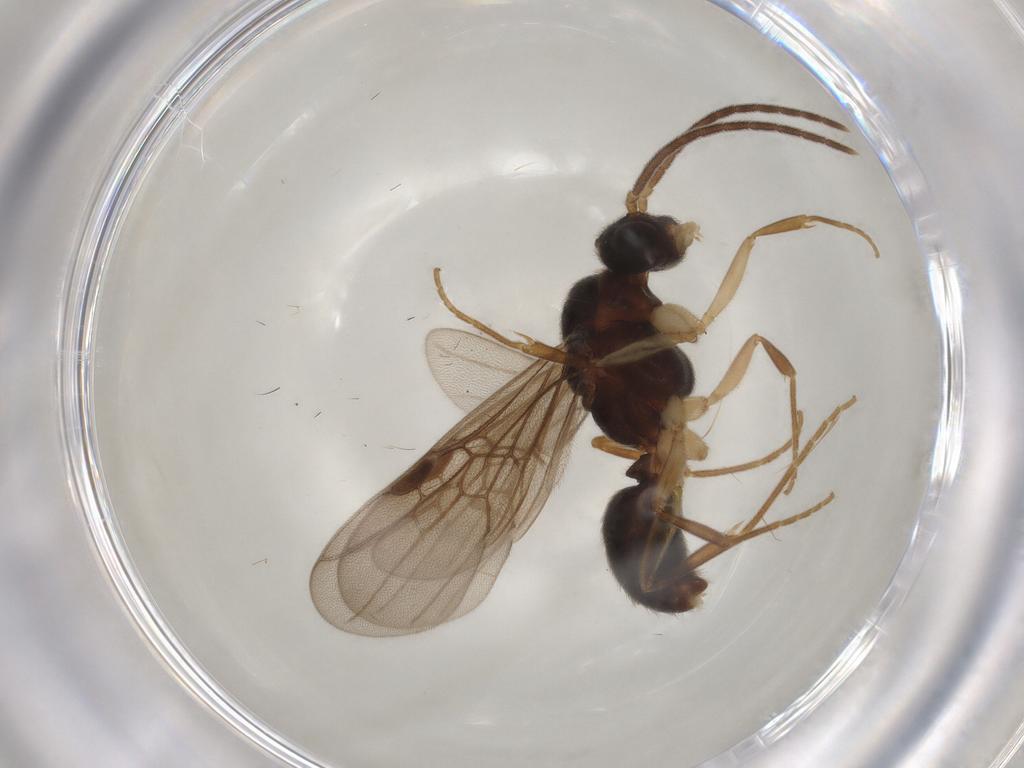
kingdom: Animalia
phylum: Arthropoda
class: Insecta
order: Hymenoptera
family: Formicidae
